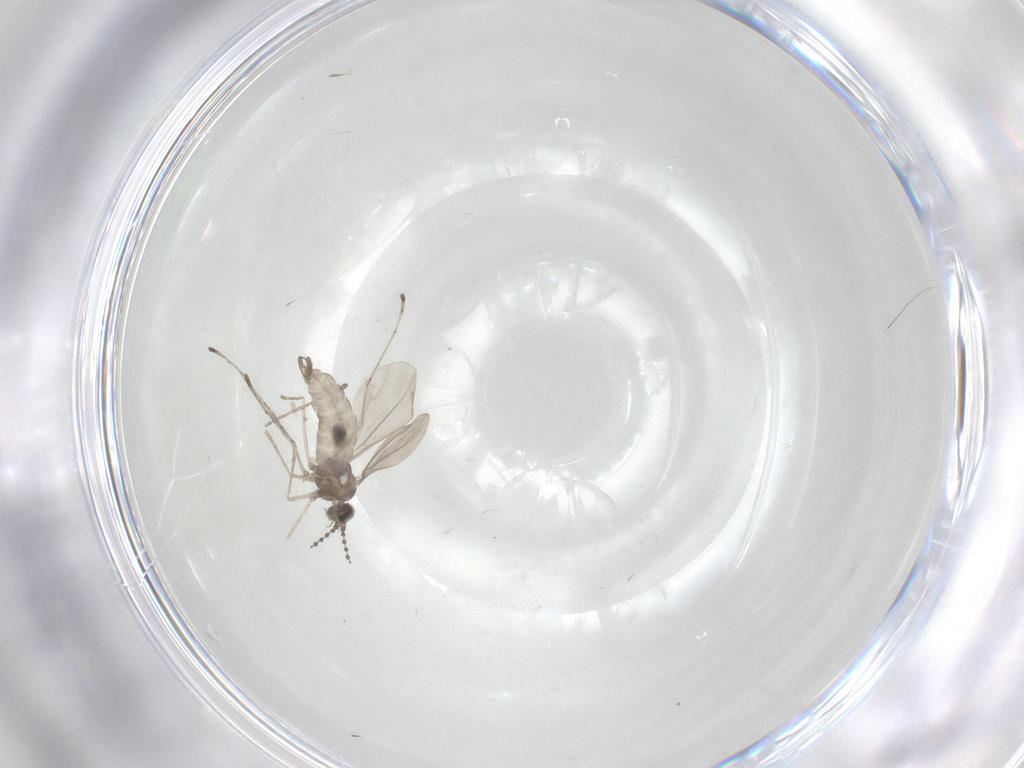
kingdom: Animalia
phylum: Arthropoda
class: Insecta
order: Diptera
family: Cecidomyiidae
